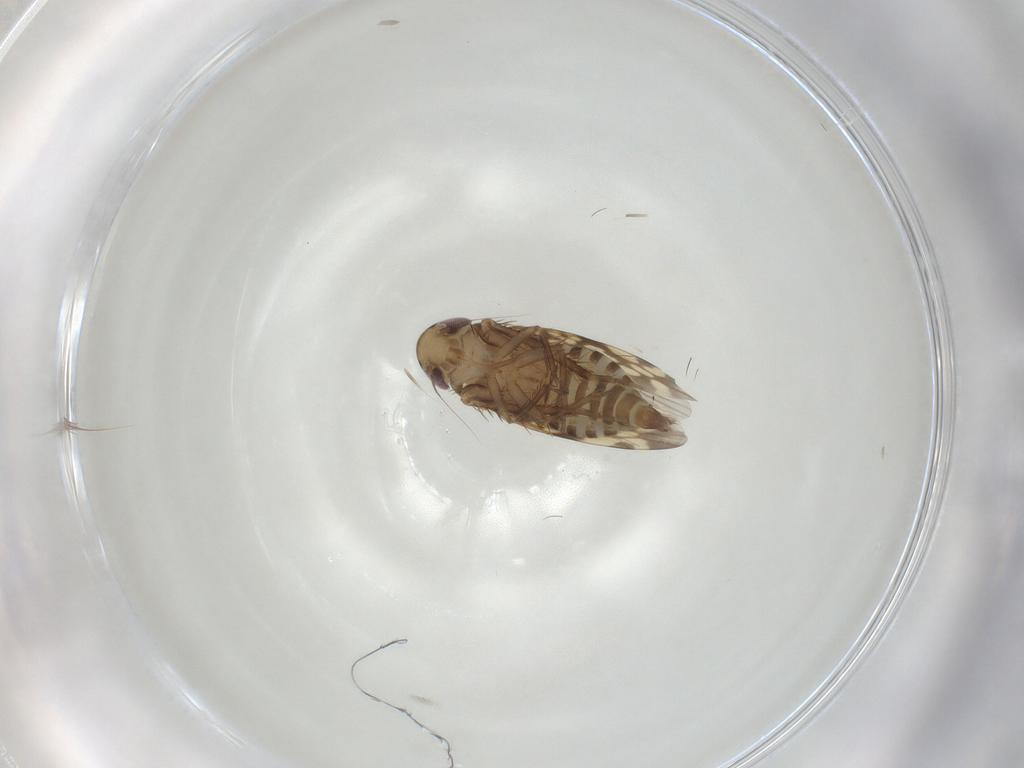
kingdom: Animalia
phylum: Arthropoda
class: Insecta
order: Hemiptera
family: Cicadellidae
